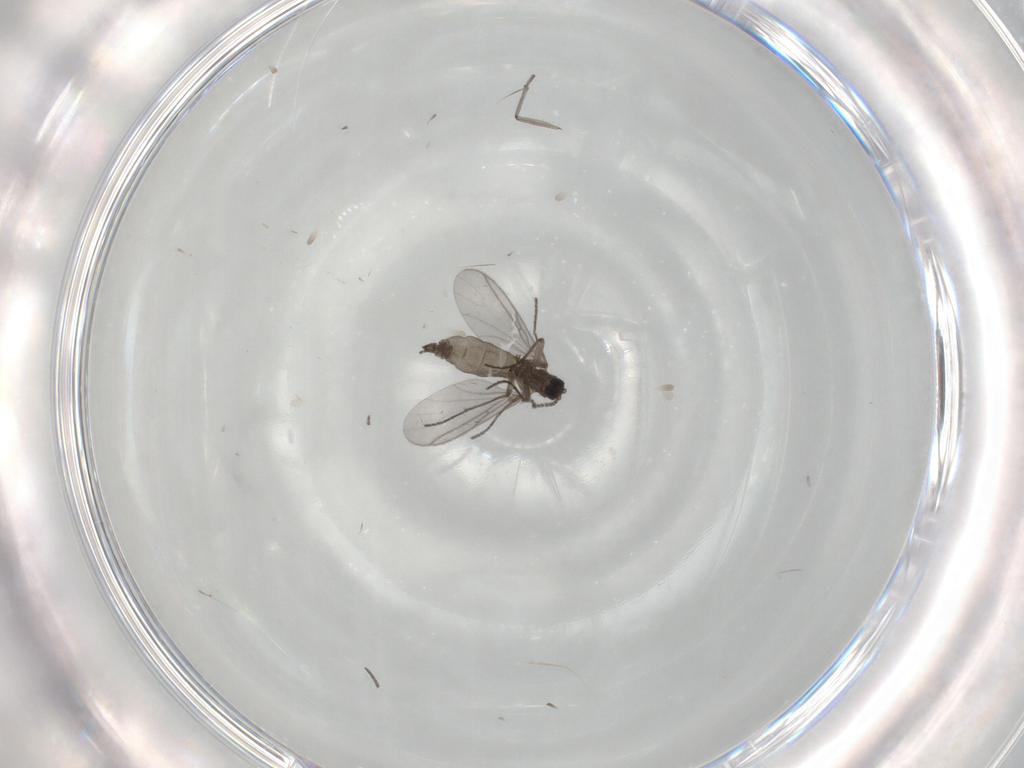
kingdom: Animalia
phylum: Arthropoda
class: Insecta
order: Diptera
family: Sciaridae
